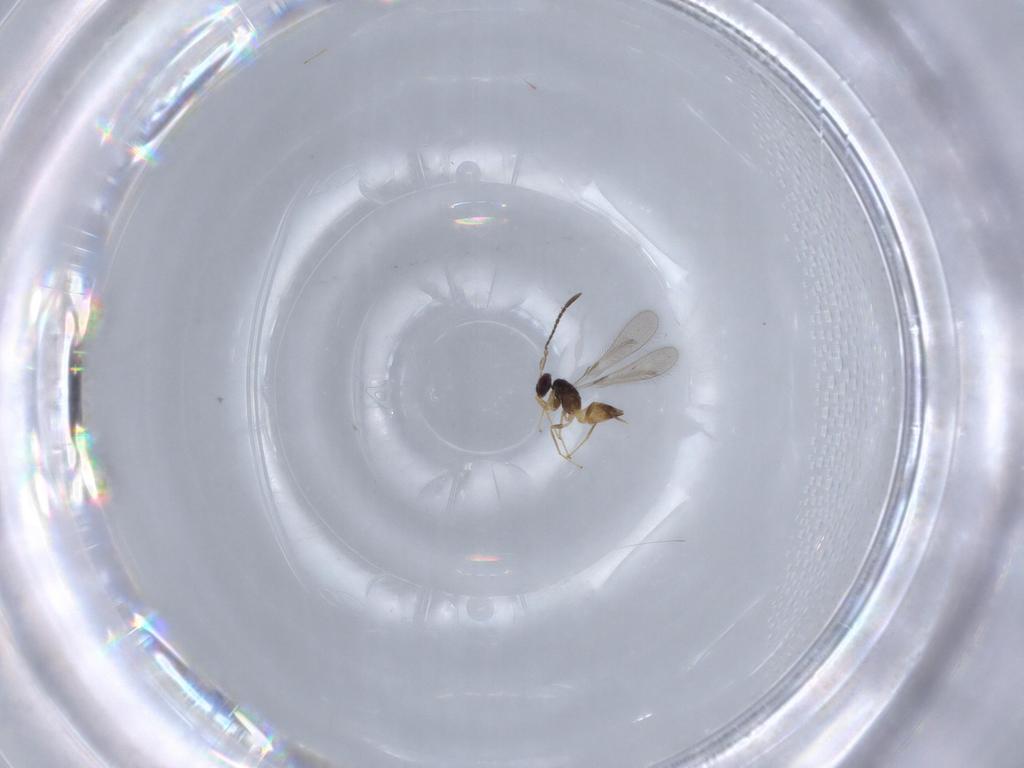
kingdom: Animalia
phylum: Arthropoda
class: Insecta
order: Hymenoptera
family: Mymaridae
